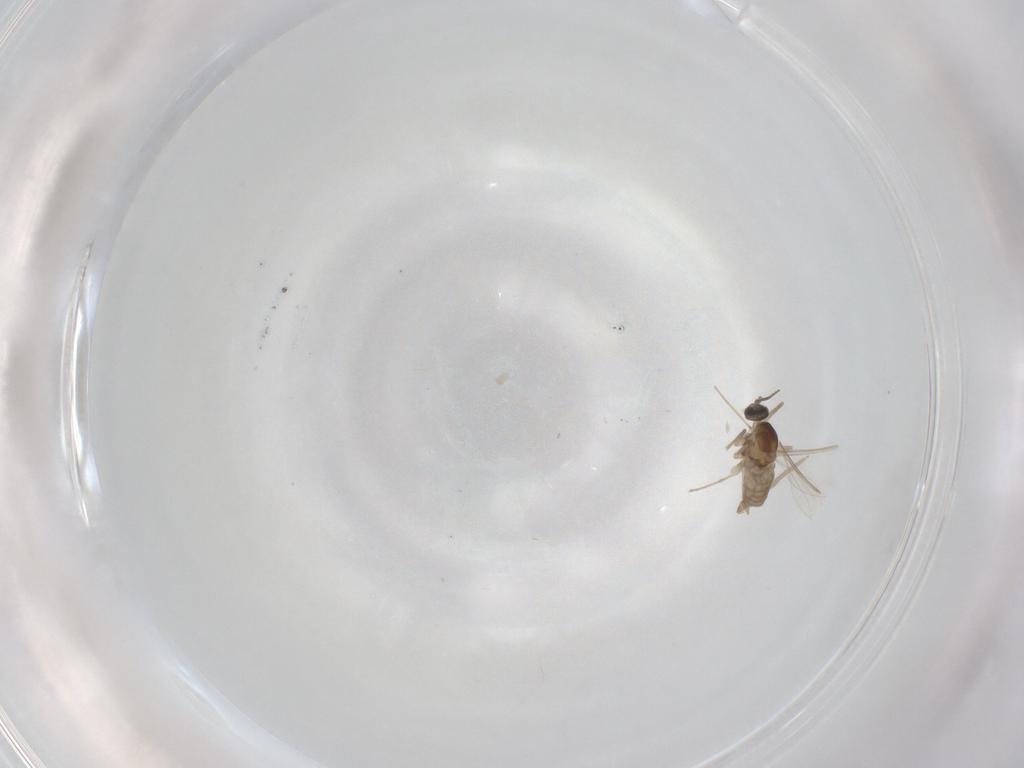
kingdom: Animalia
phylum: Arthropoda
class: Insecta
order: Diptera
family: Cecidomyiidae
